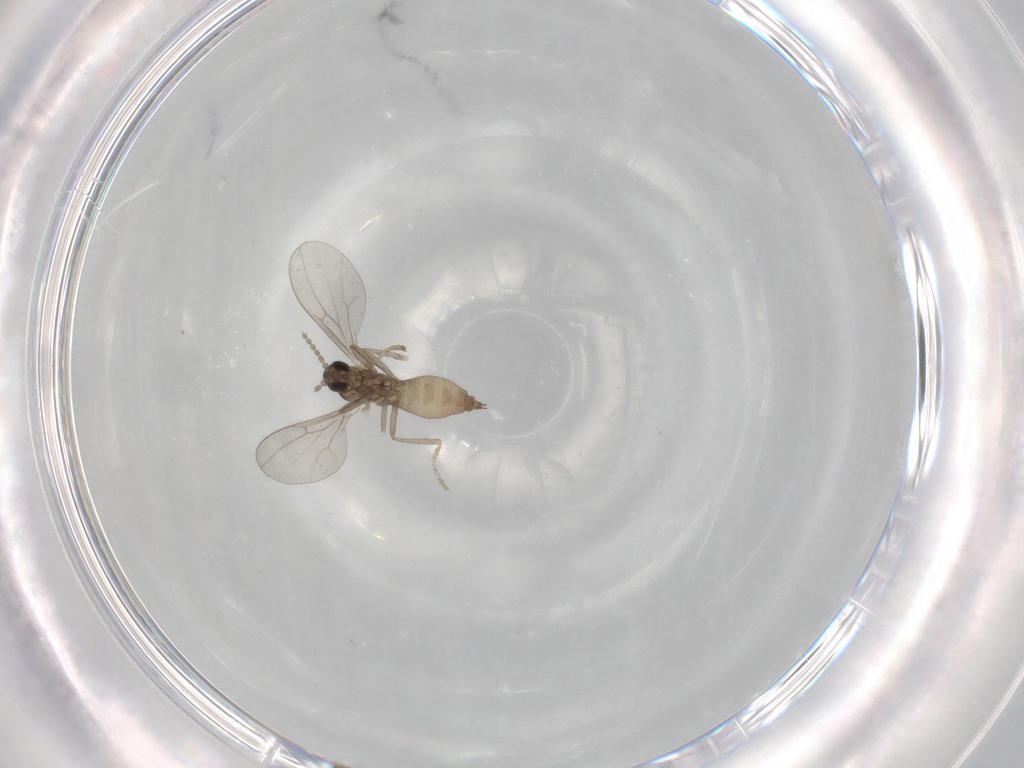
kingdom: Animalia
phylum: Arthropoda
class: Insecta
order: Diptera
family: Cecidomyiidae
